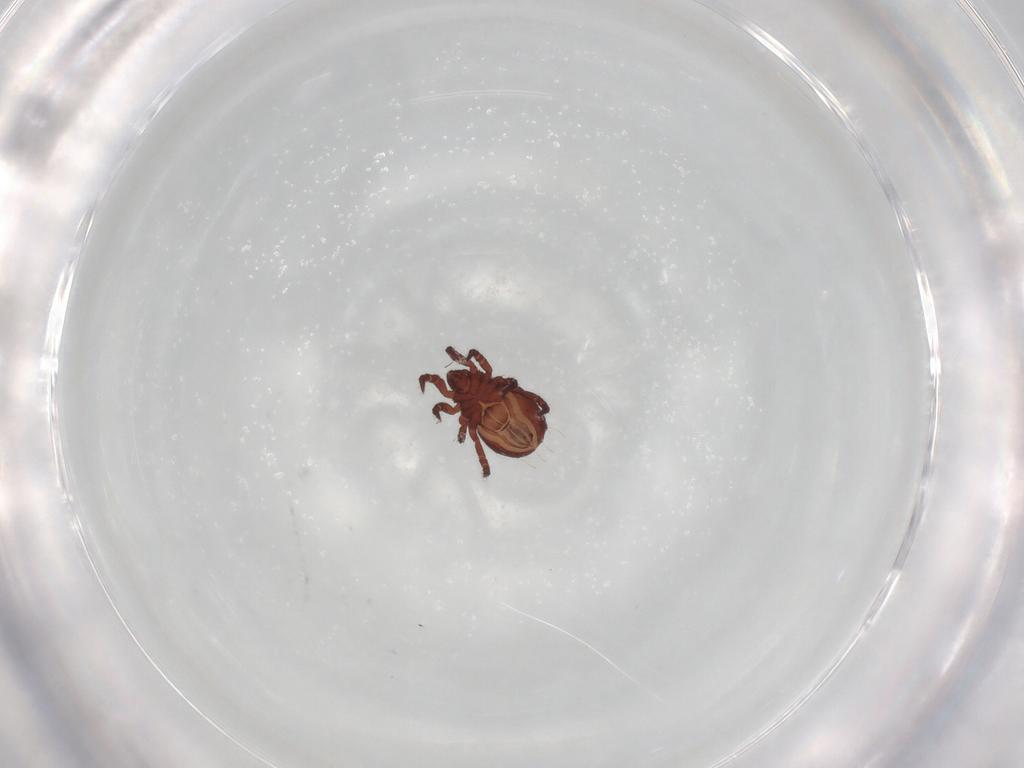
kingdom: Animalia
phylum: Arthropoda
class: Arachnida
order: Sarcoptiformes
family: Nothridae
